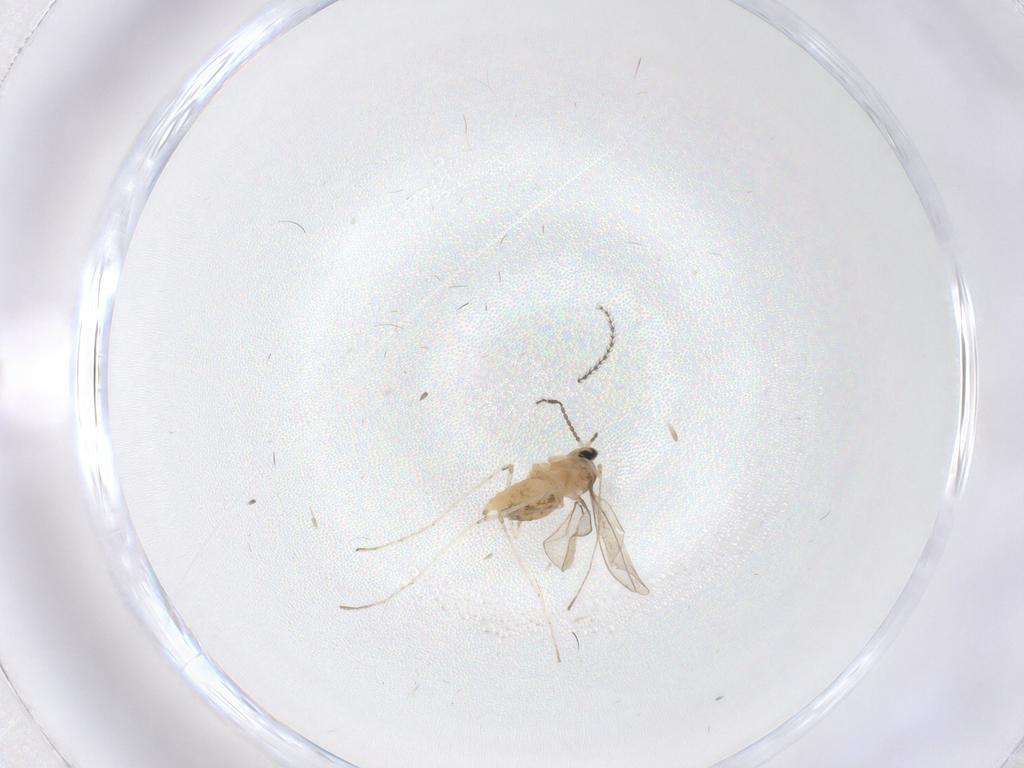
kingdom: Animalia
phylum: Arthropoda
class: Insecta
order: Diptera
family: Cecidomyiidae
